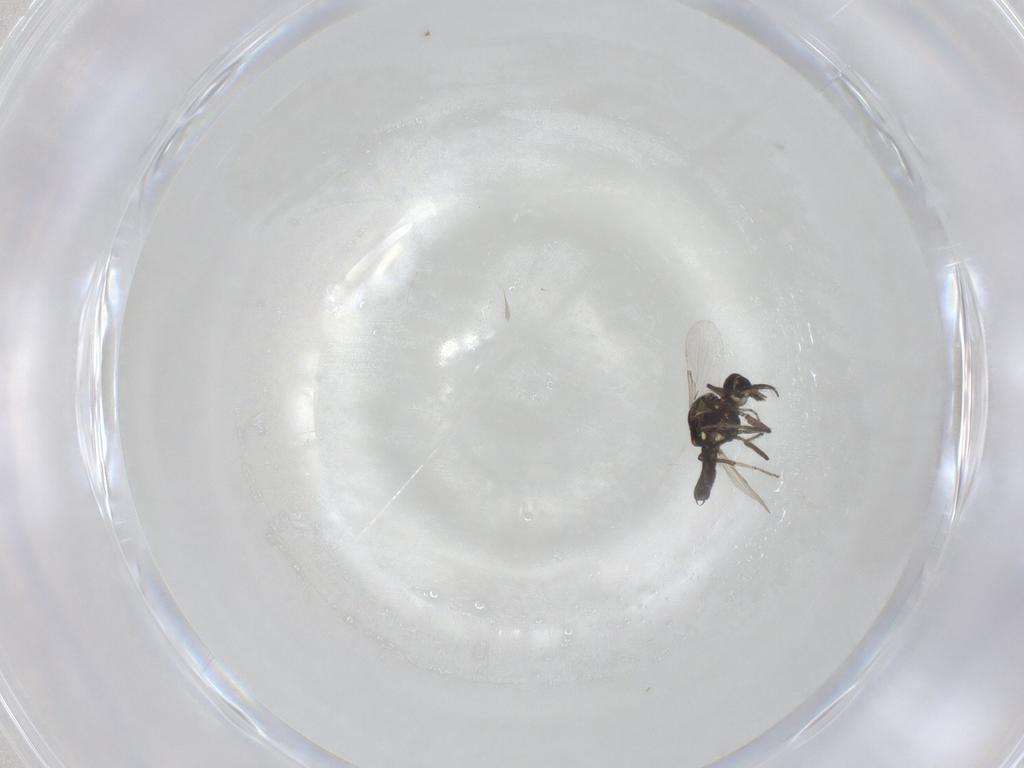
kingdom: Animalia
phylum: Arthropoda
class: Insecta
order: Diptera
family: Ceratopogonidae
